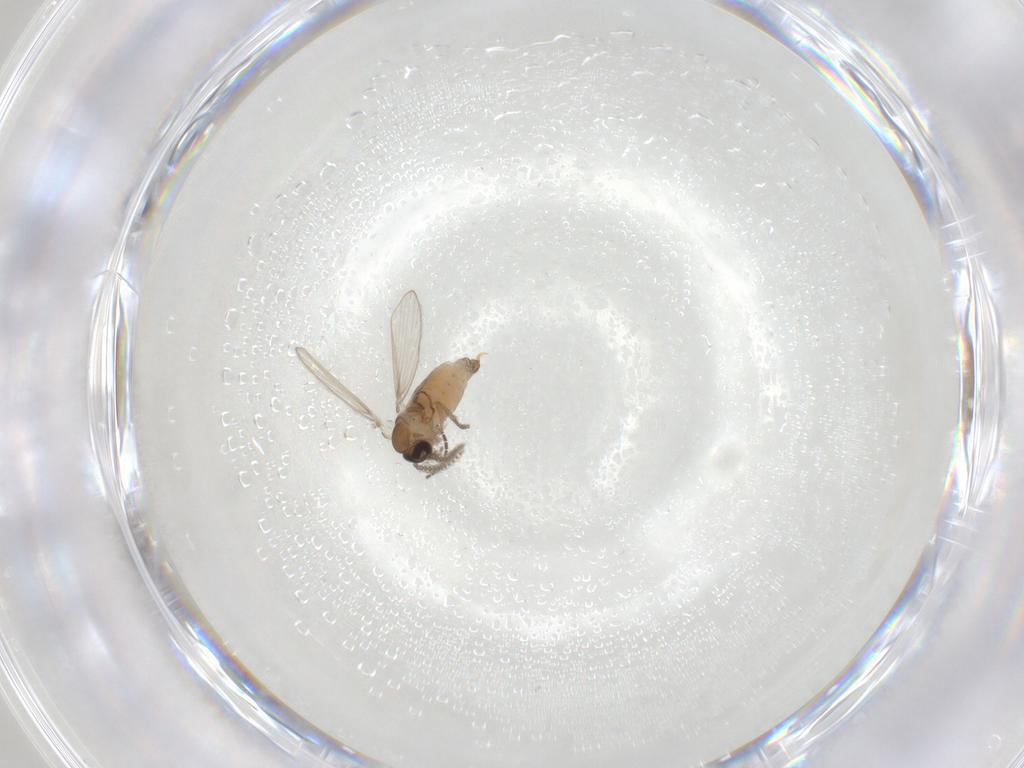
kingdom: Animalia
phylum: Arthropoda
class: Insecta
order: Diptera
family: Psychodidae
